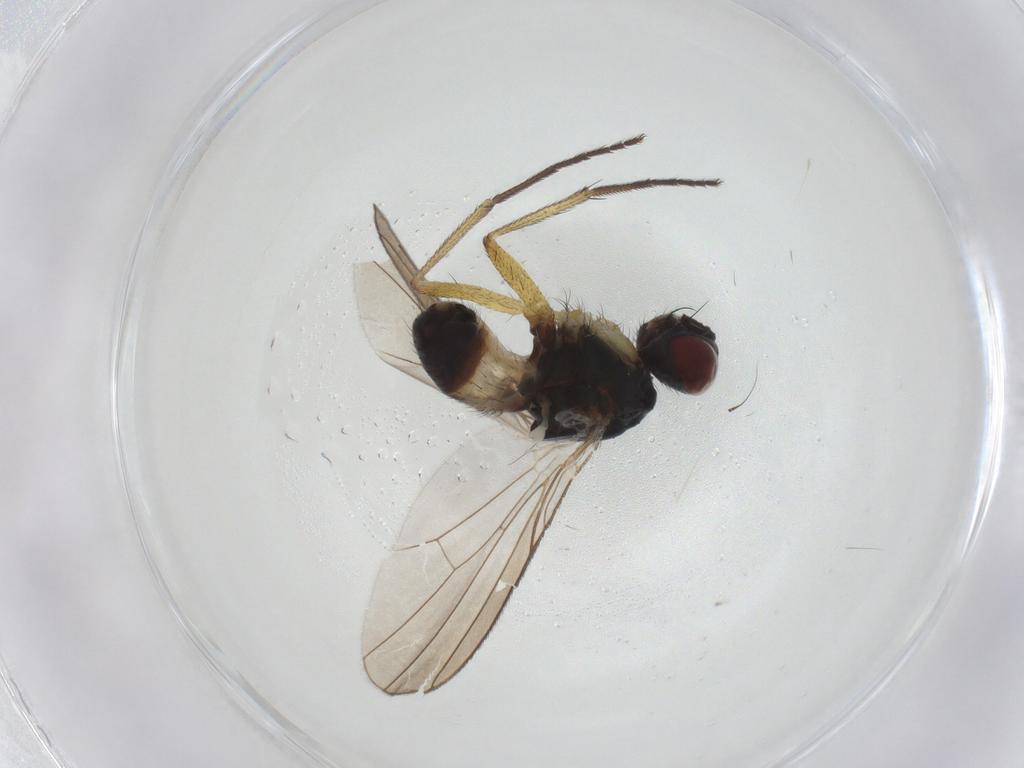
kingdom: Animalia
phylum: Arthropoda
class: Insecta
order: Diptera
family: Muscidae
